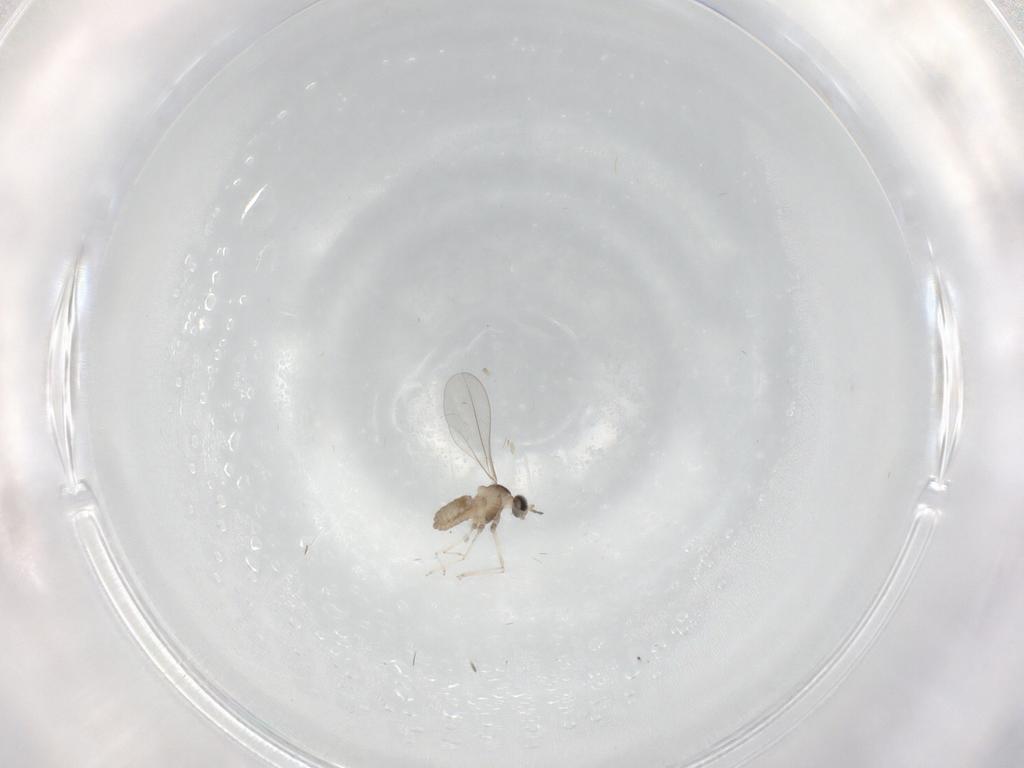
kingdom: Animalia
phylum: Arthropoda
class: Insecta
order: Diptera
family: Cecidomyiidae
